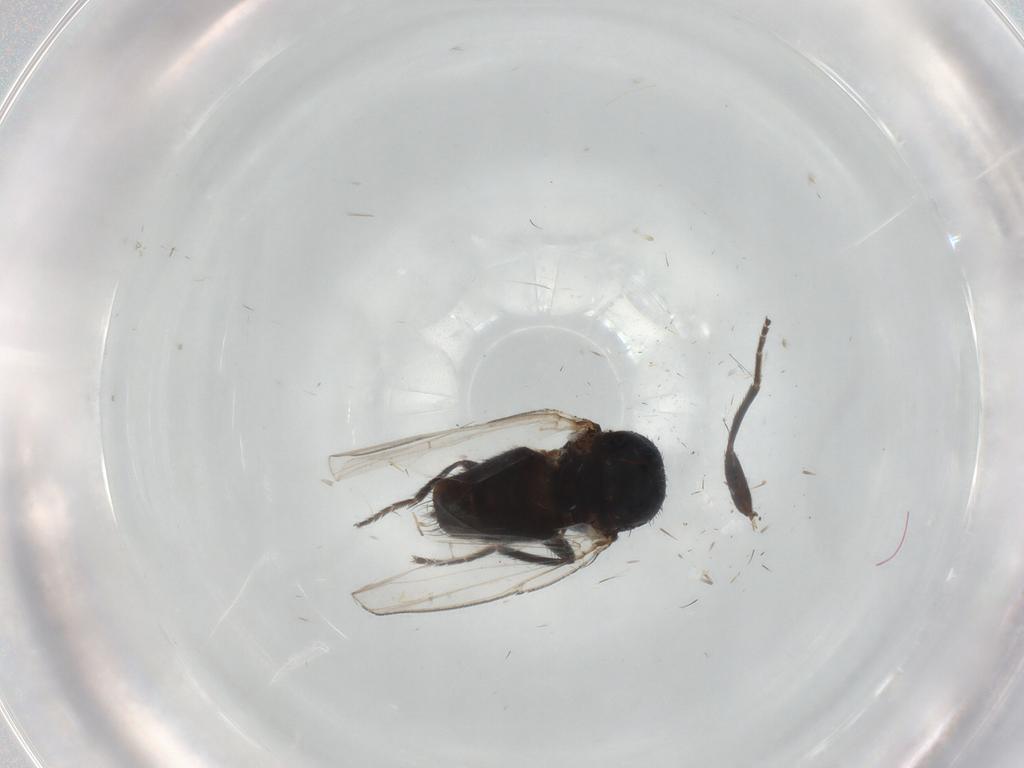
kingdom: Animalia
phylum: Arthropoda
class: Insecta
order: Diptera
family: Milichiidae
